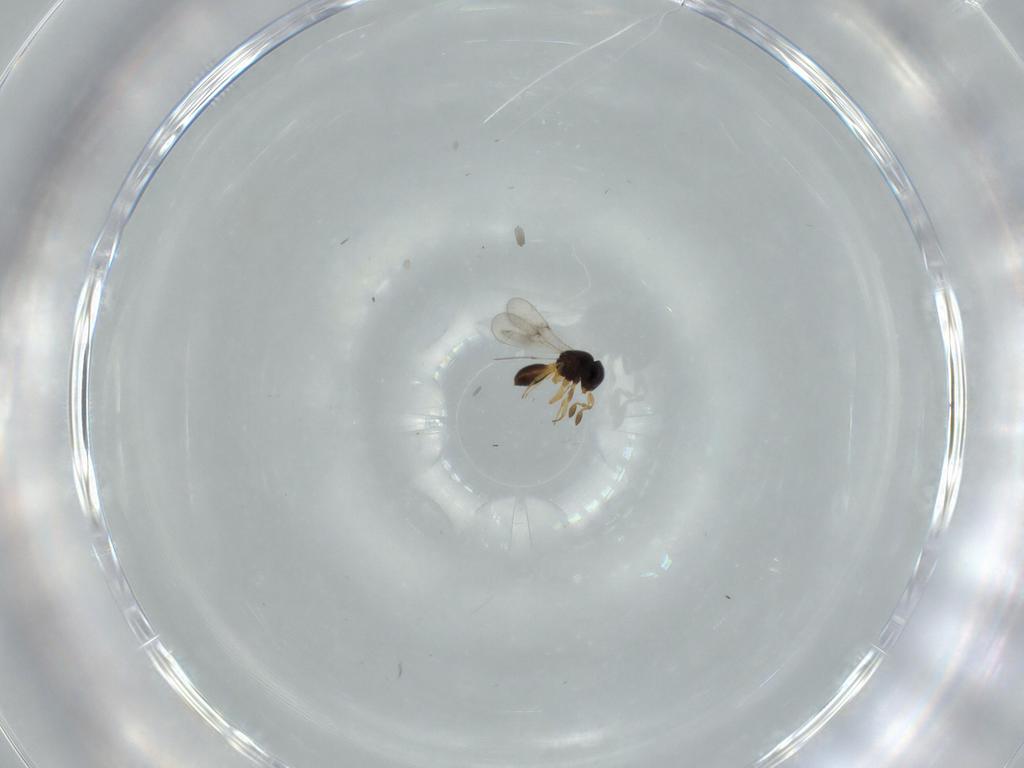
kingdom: Animalia
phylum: Arthropoda
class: Insecta
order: Hymenoptera
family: Scelionidae
